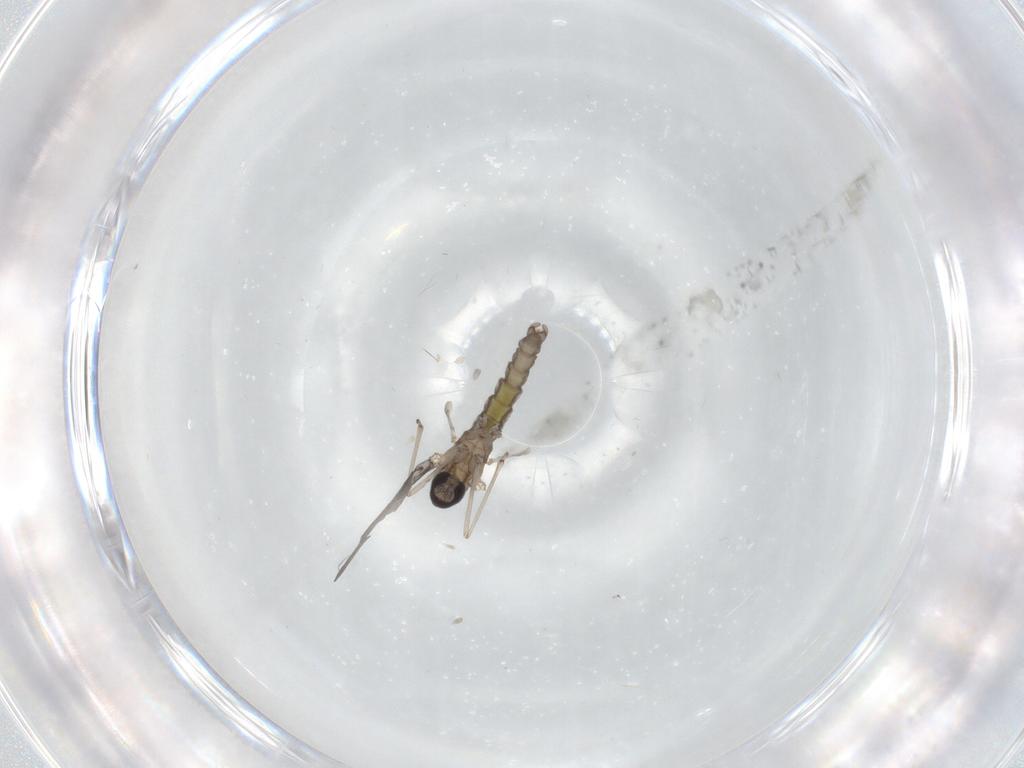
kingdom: Animalia
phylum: Arthropoda
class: Insecta
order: Diptera
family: Cecidomyiidae
